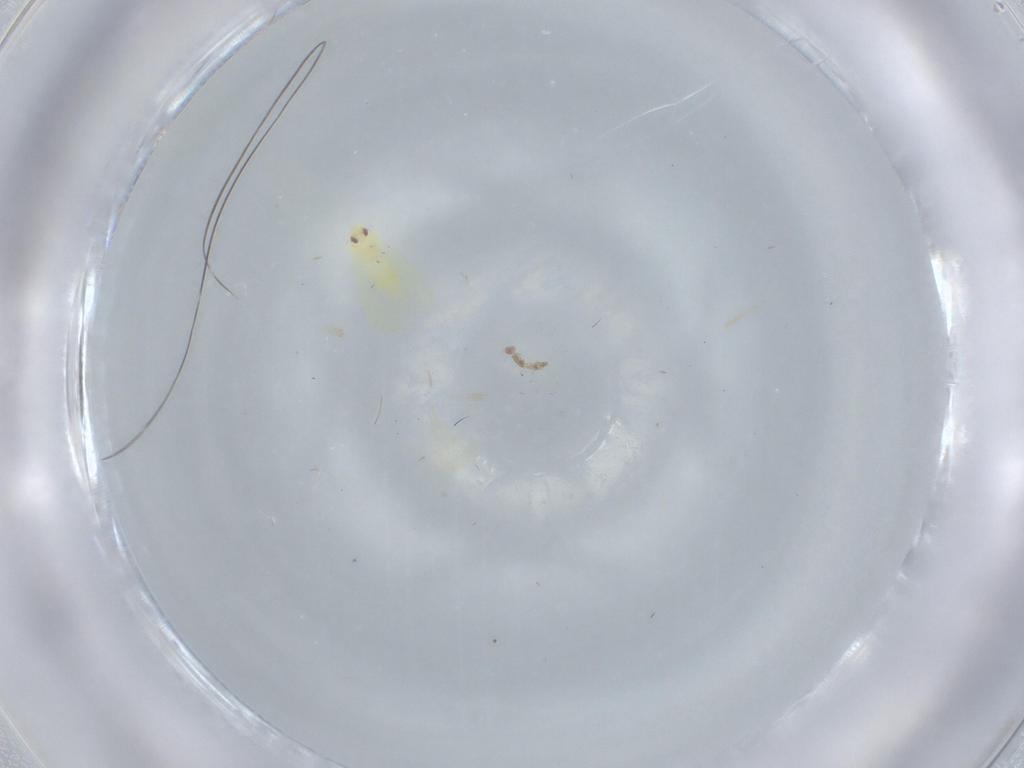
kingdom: Animalia
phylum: Arthropoda
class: Insecta
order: Hemiptera
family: Aleyrodidae
